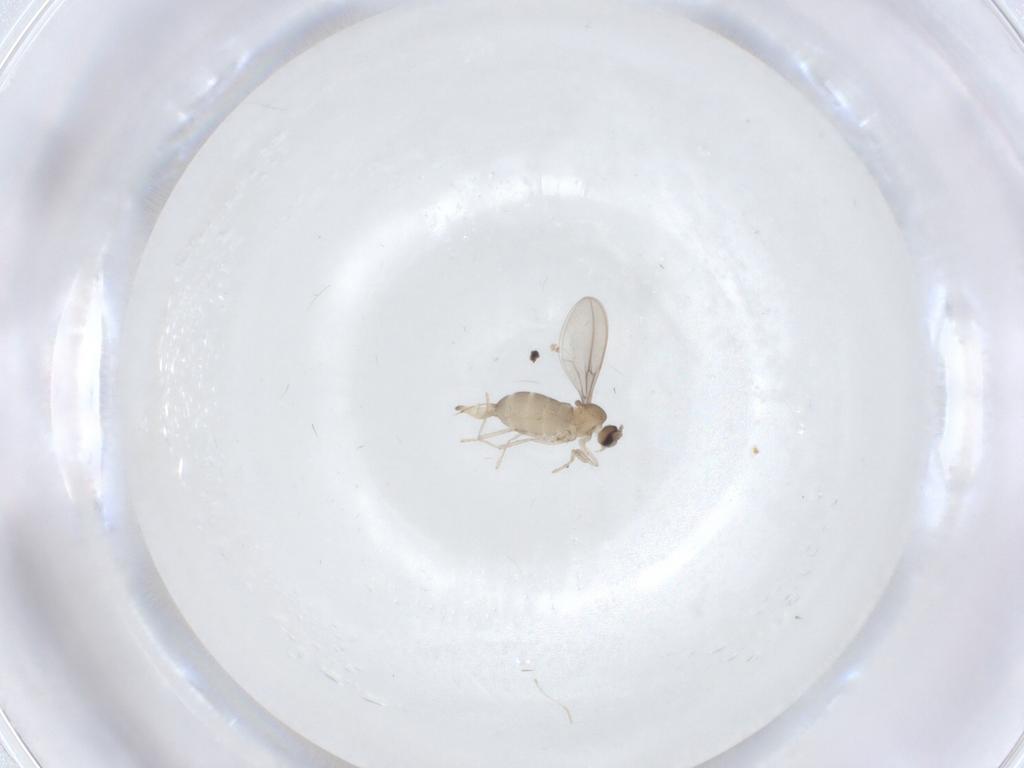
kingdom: Animalia
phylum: Arthropoda
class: Insecta
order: Diptera
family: Cecidomyiidae
